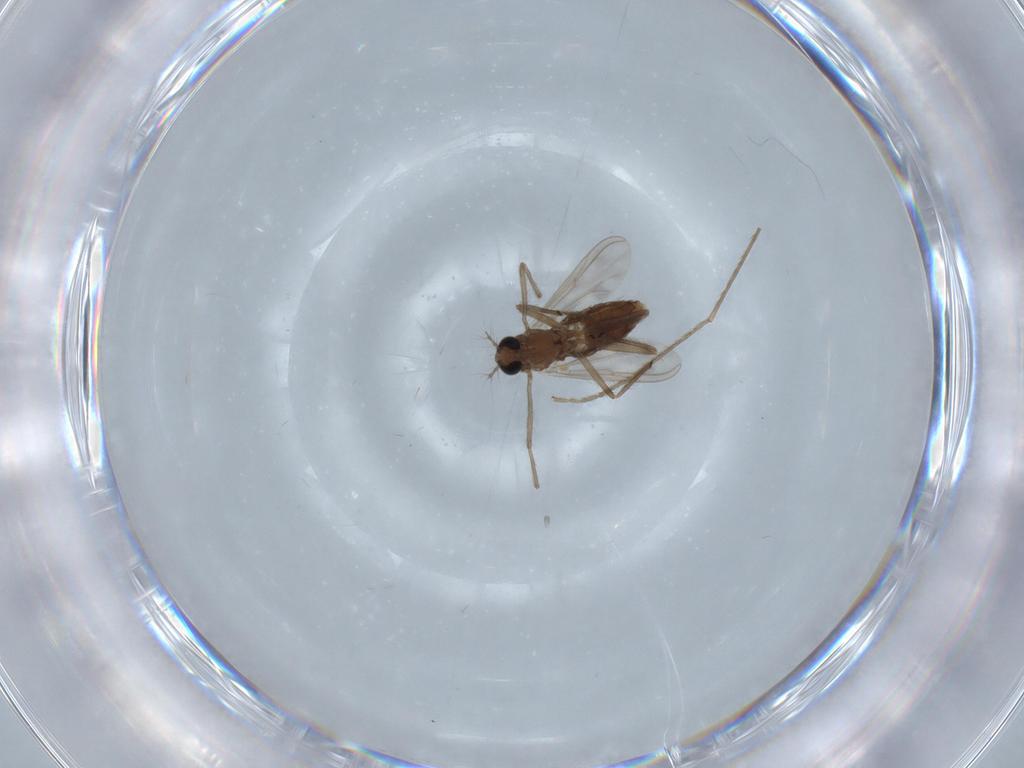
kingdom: Animalia
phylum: Arthropoda
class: Insecta
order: Diptera
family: Chironomidae
